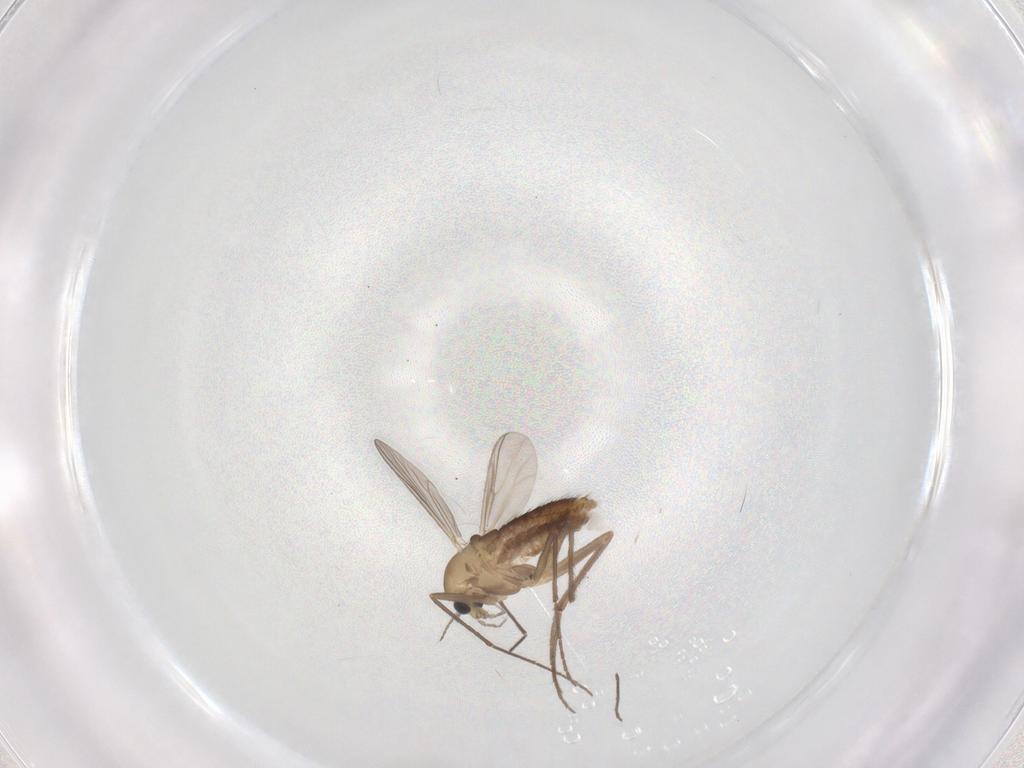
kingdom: Animalia
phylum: Arthropoda
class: Insecta
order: Diptera
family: Chironomidae
